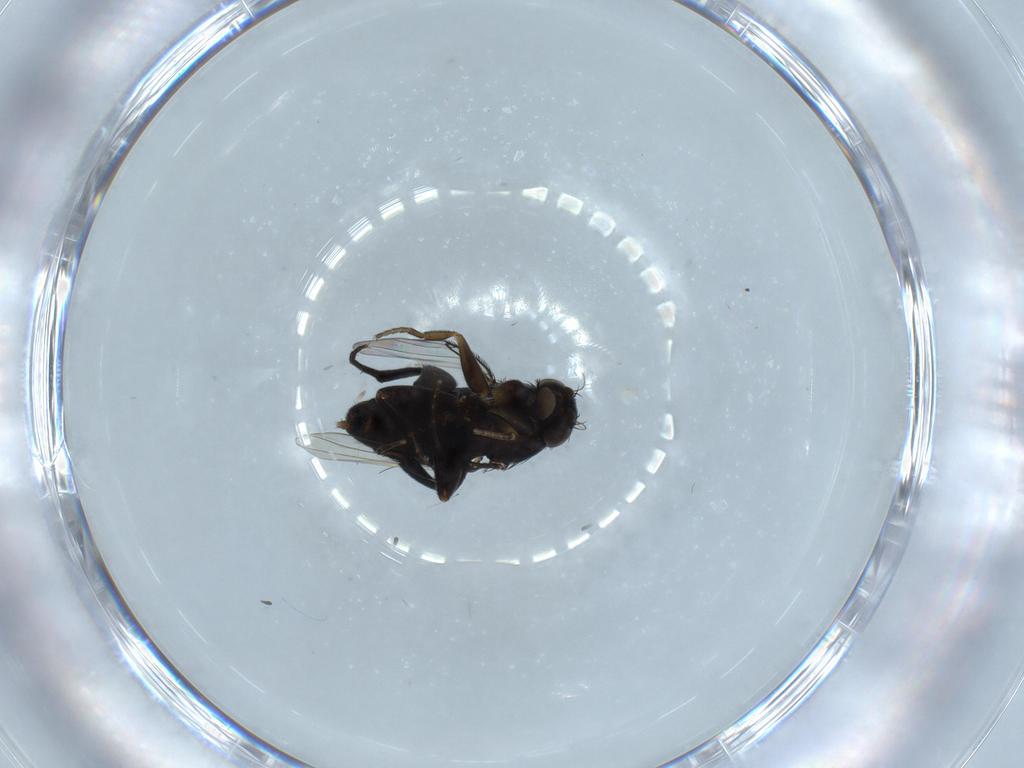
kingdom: Animalia
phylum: Arthropoda
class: Insecta
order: Diptera
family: Phoridae
